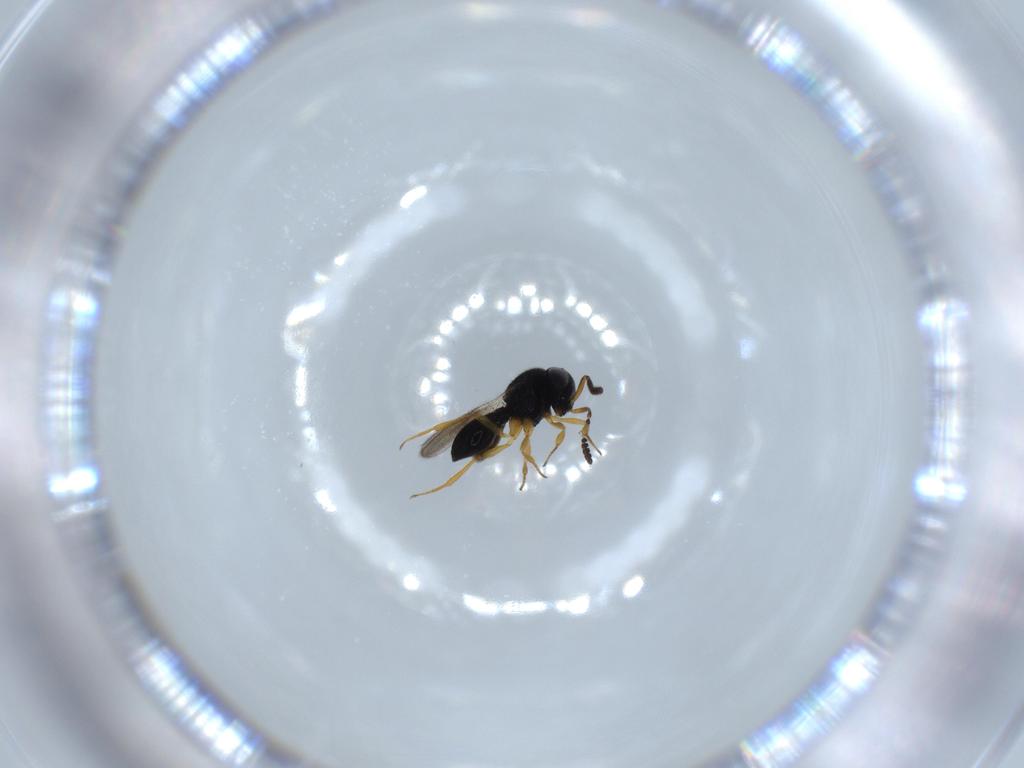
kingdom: Animalia
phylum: Arthropoda
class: Insecta
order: Hymenoptera
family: Scelionidae
